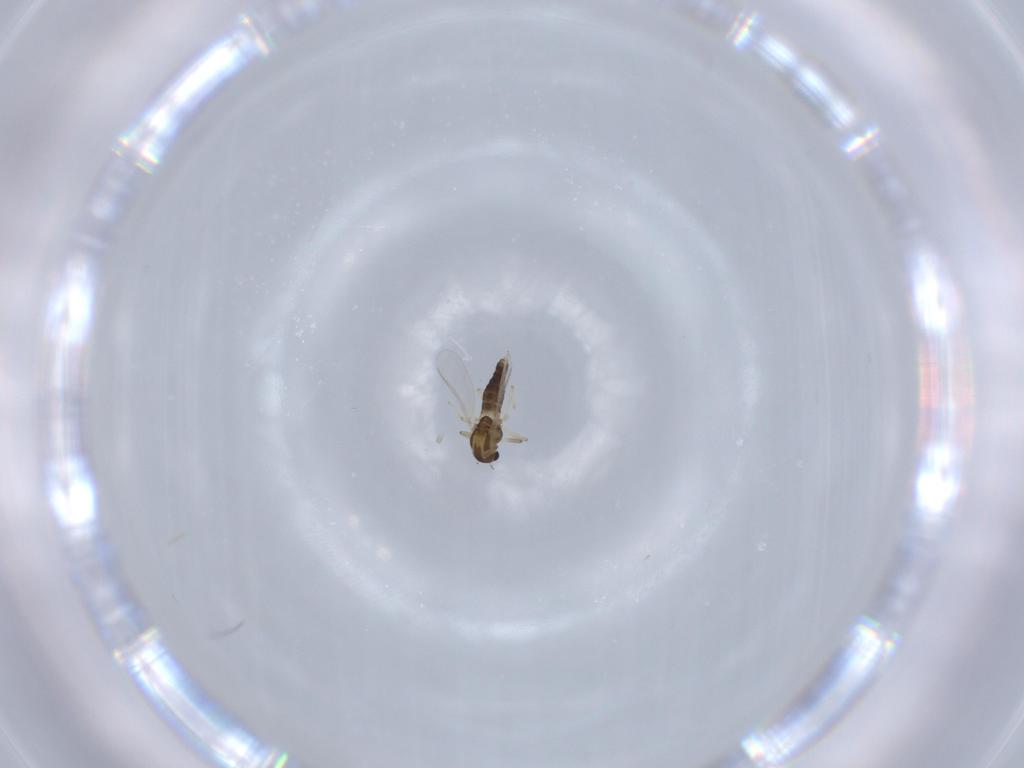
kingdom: Animalia
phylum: Arthropoda
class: Insecta
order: Diptera
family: Chironomidae
